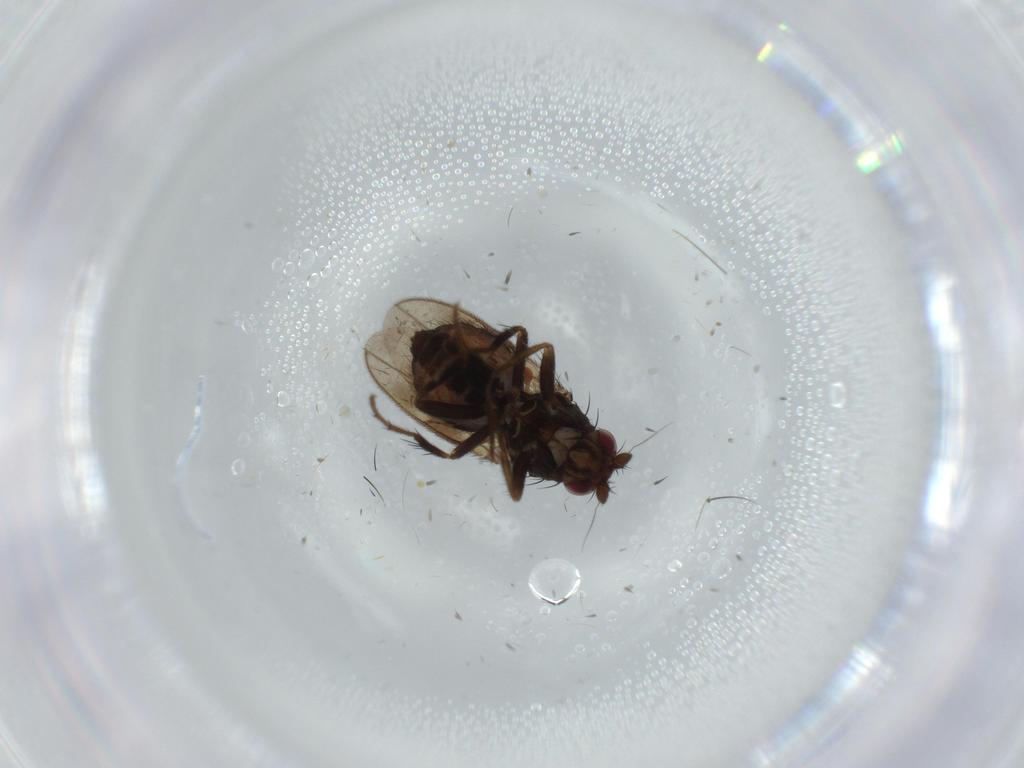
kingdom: Animalia
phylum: Arthropoda
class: Insecta
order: Diptera
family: Sphaeroceridae
